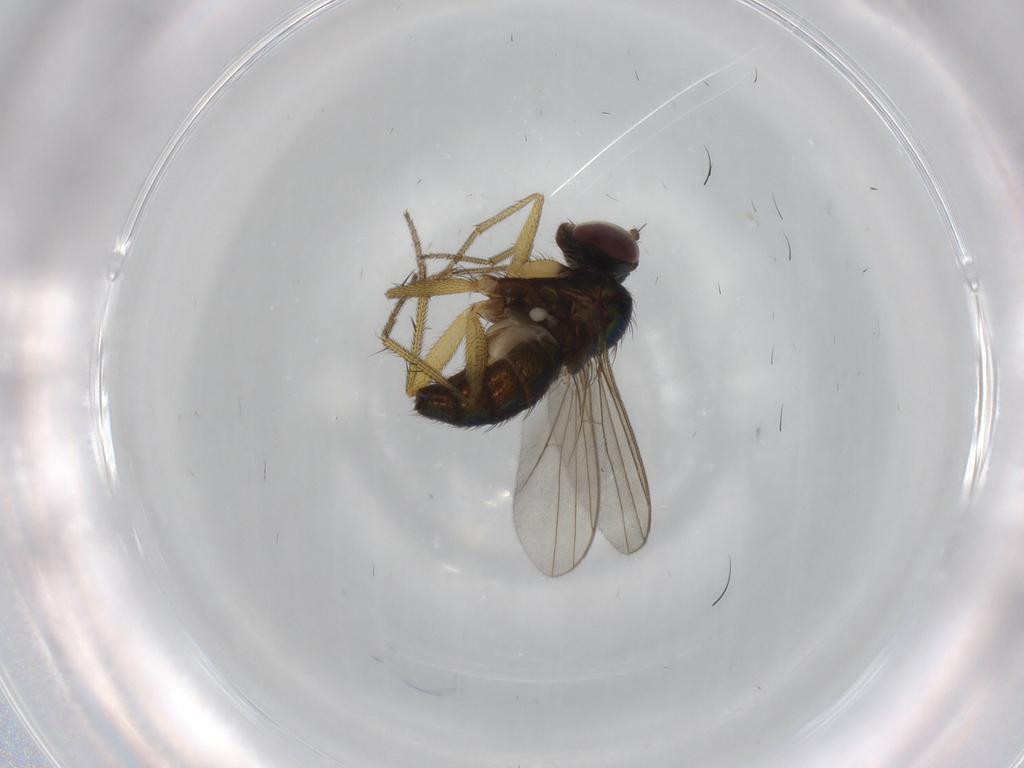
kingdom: Animalia
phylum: Arthropoda
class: Insecta
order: Diptera
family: Dolichopodidae
